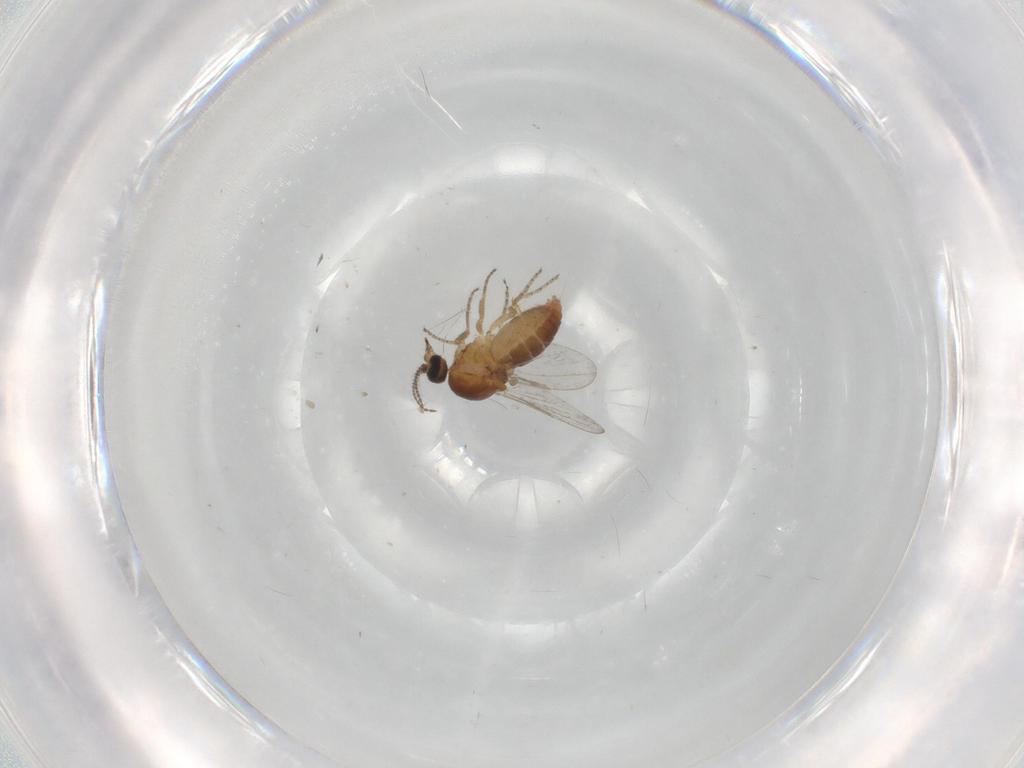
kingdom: Animalia
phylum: Arthropoda
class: Insecta
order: Diptera
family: Ceratopogonidae
